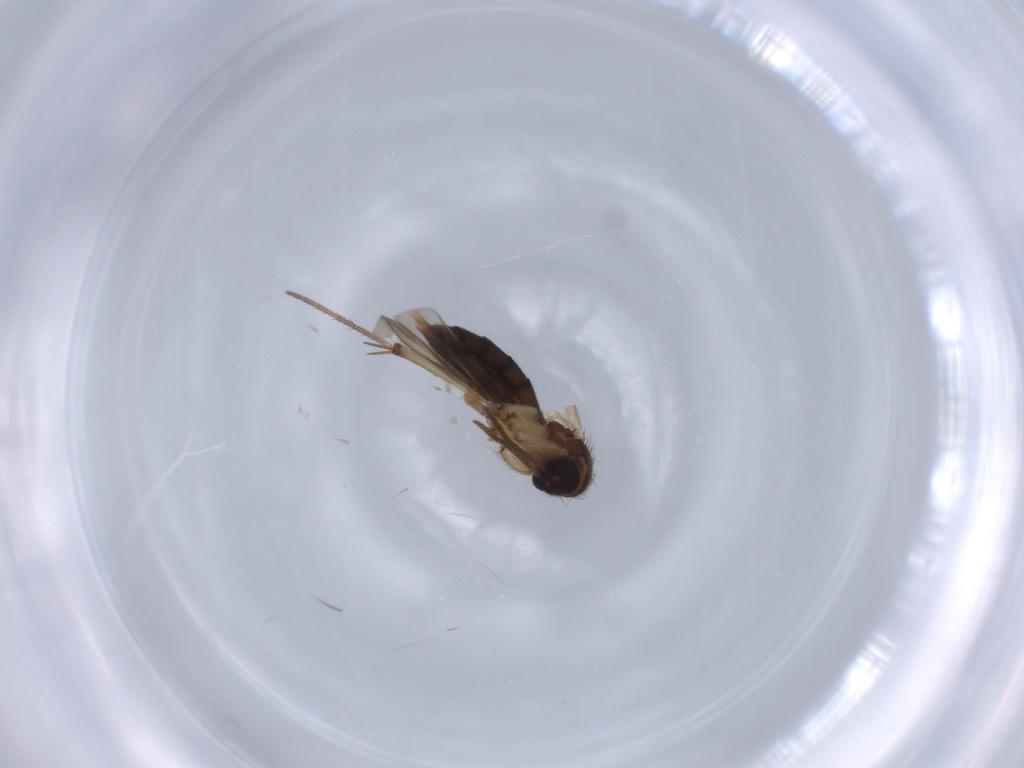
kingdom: Animalia
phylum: Arthropoda
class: Insecta
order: Diptera
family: Muscidae
